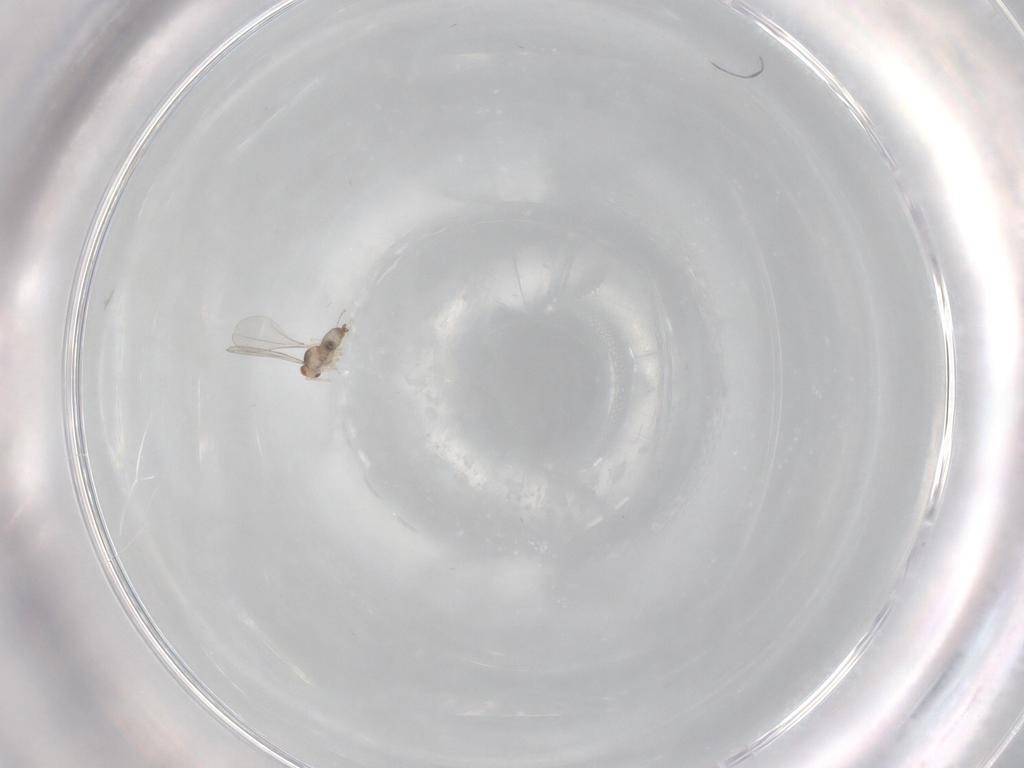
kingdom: Animalia
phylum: Arthropoda
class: Insecta
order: Diptera
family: Cecidomyiidae
